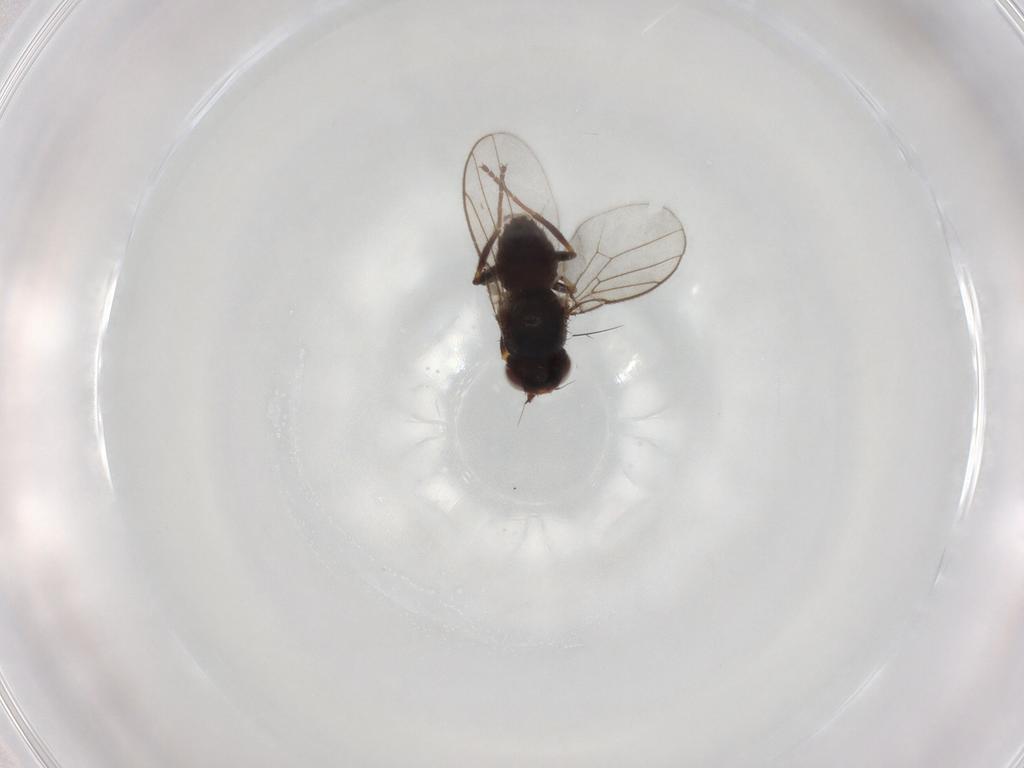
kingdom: Animalia
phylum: Arthropoda
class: Insecta
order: Diptera
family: Chloropidae
